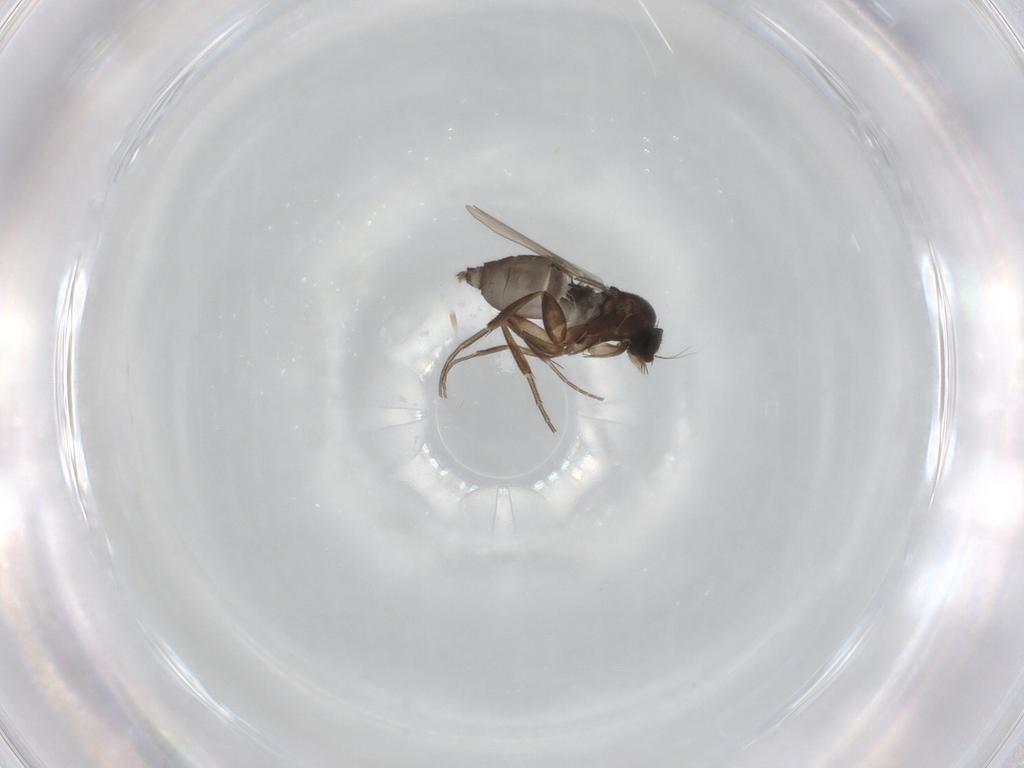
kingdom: Animalia
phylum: Arthropoda
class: Insecta
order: Diptera
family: Phoridae
